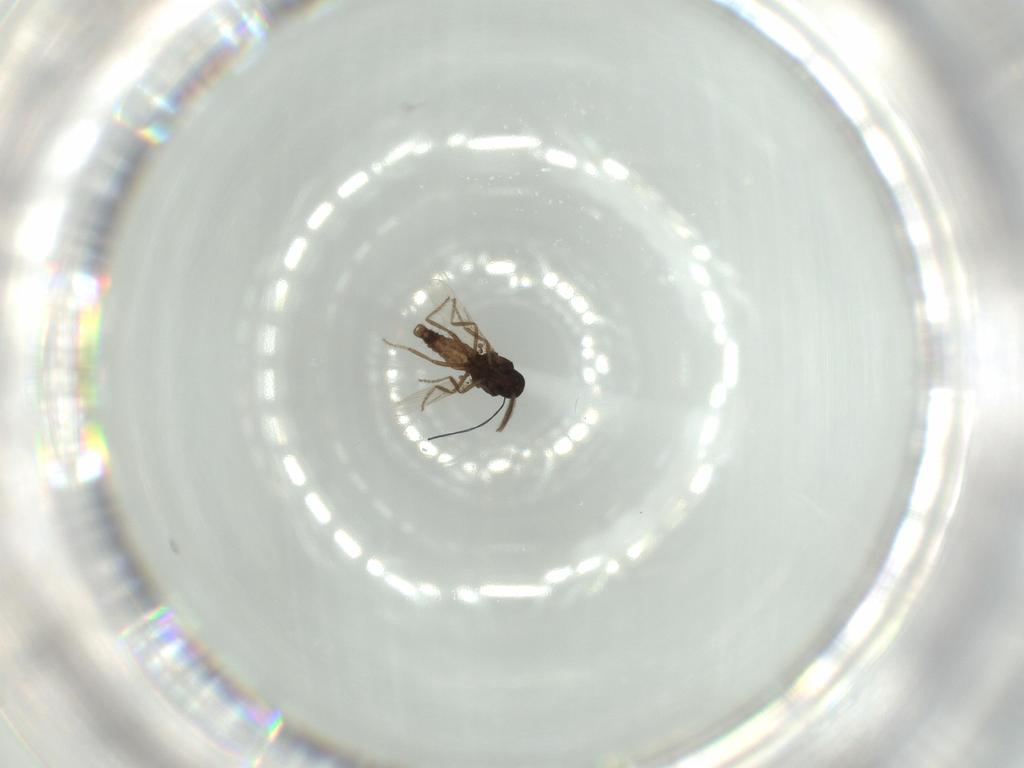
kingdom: Animalia
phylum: Arthropoda
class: Insecta
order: Diptera
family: Ceratopogonidae
